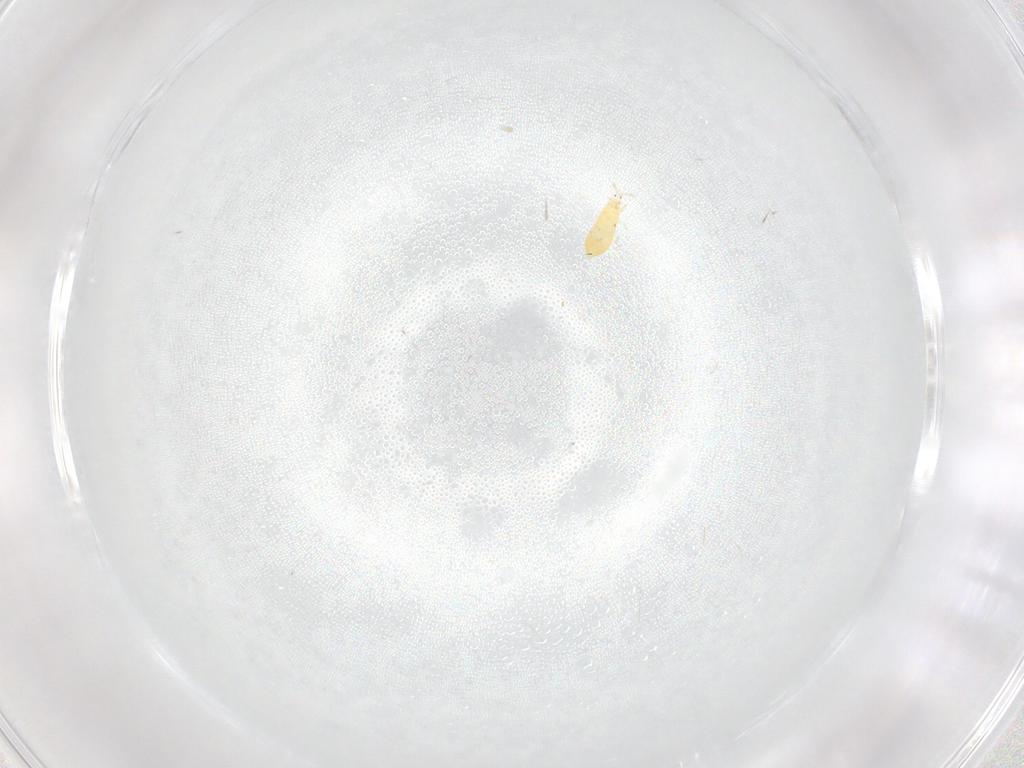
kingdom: Animalia
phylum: Arthropoda
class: Insecta
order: Thysanoptera
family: Thripidae
